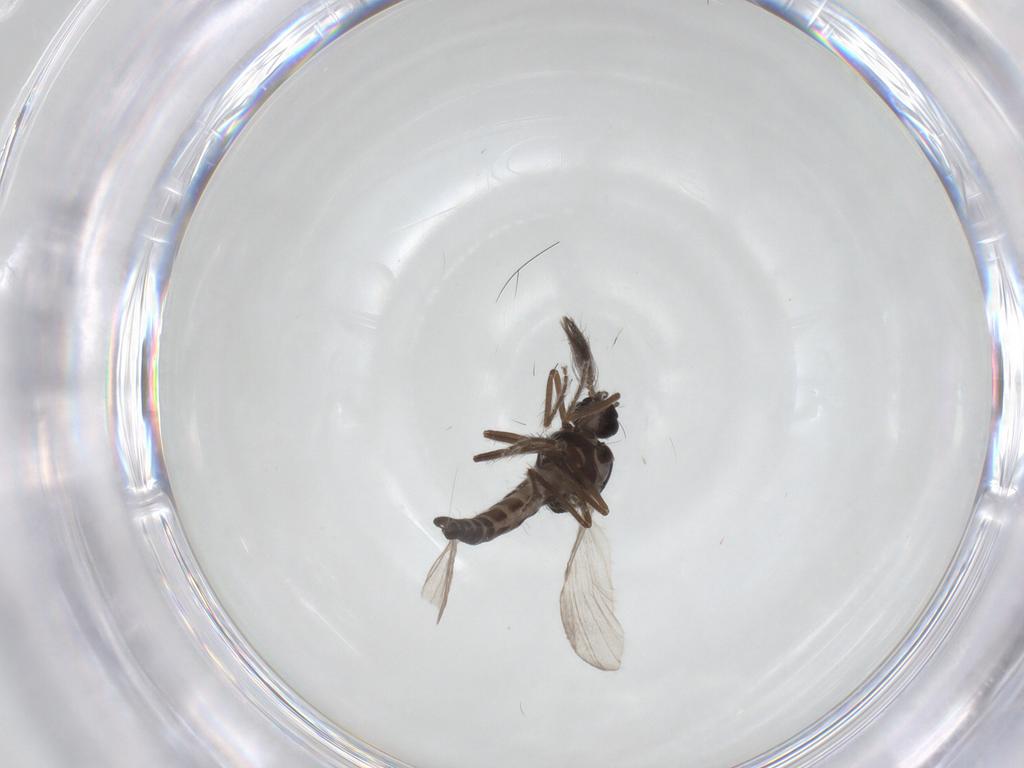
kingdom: Animalia
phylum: Arthropoda
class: Insecta
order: Diptera
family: Ceratopogonidae
